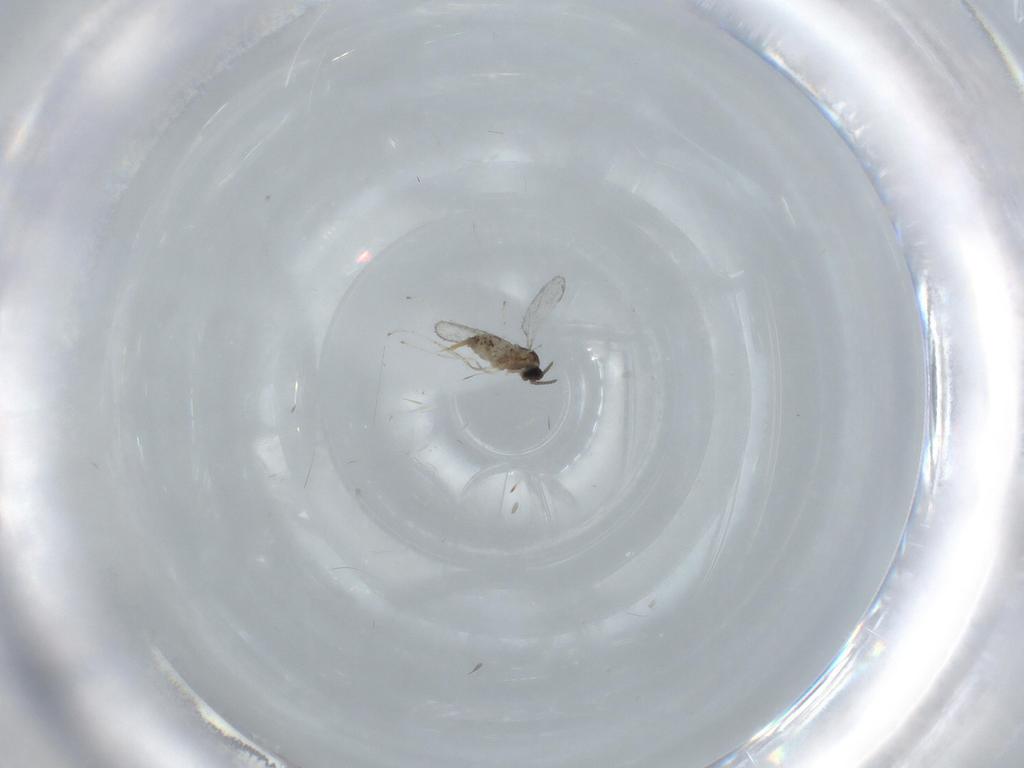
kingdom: Animalia
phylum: Arthropoda
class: Insecta
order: Diptera
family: Cecidomyiidae
